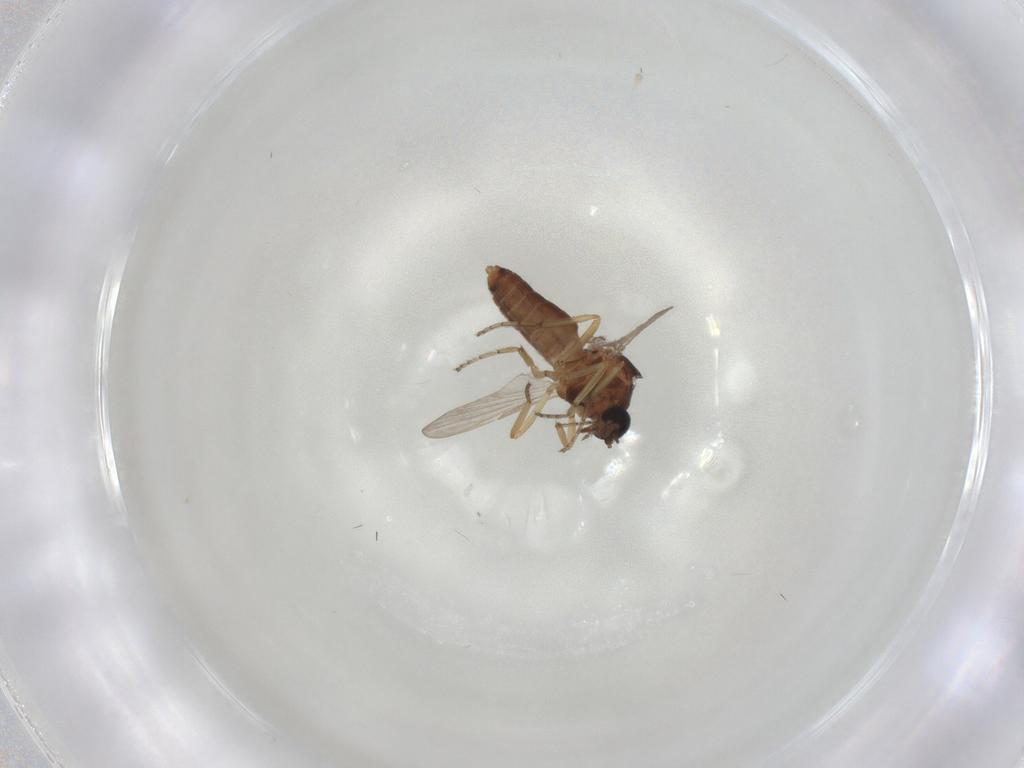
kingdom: Animalia
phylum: Arthropoda
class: Insecta
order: Diptera
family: Ceratopogonidae
